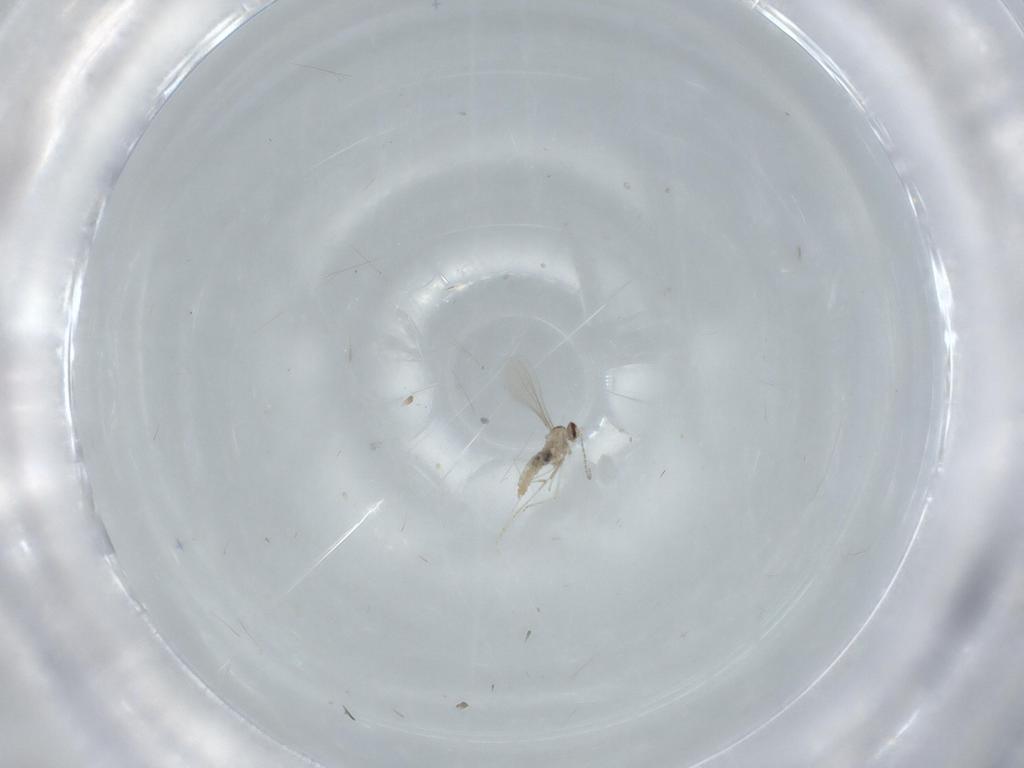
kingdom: Animalia
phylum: Arthropoda
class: Insecta
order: Diptera
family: Stratiomyidae
